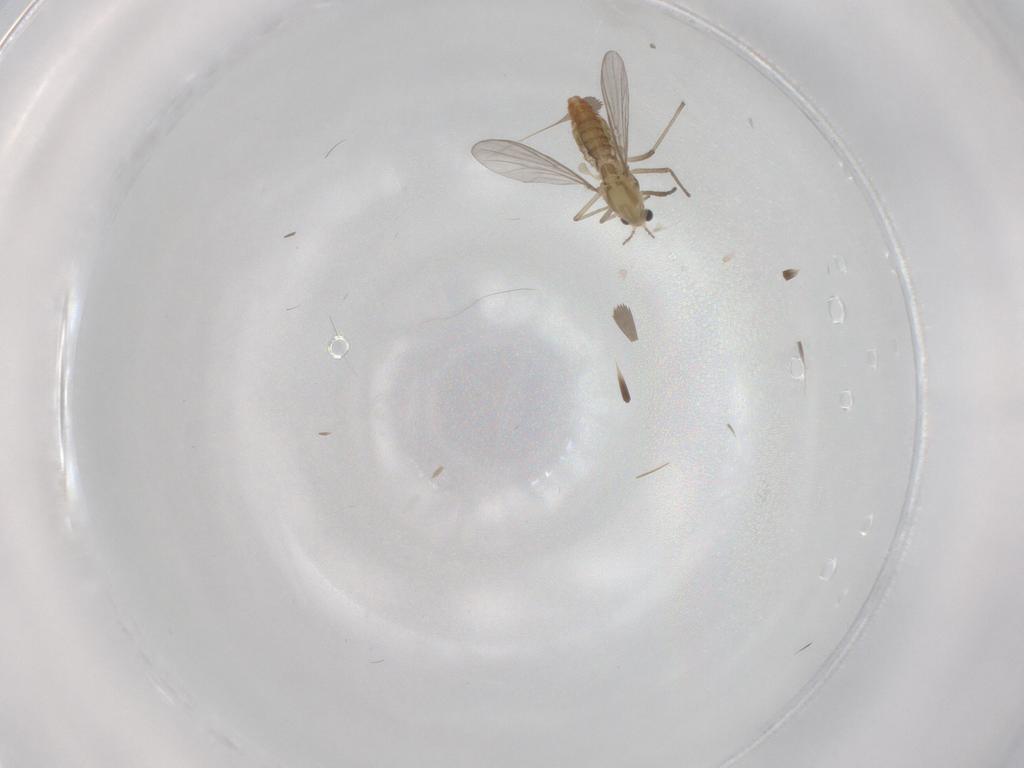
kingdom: Animalia
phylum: Arthropoda
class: Insecta
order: Diptera
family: Chironomidae
